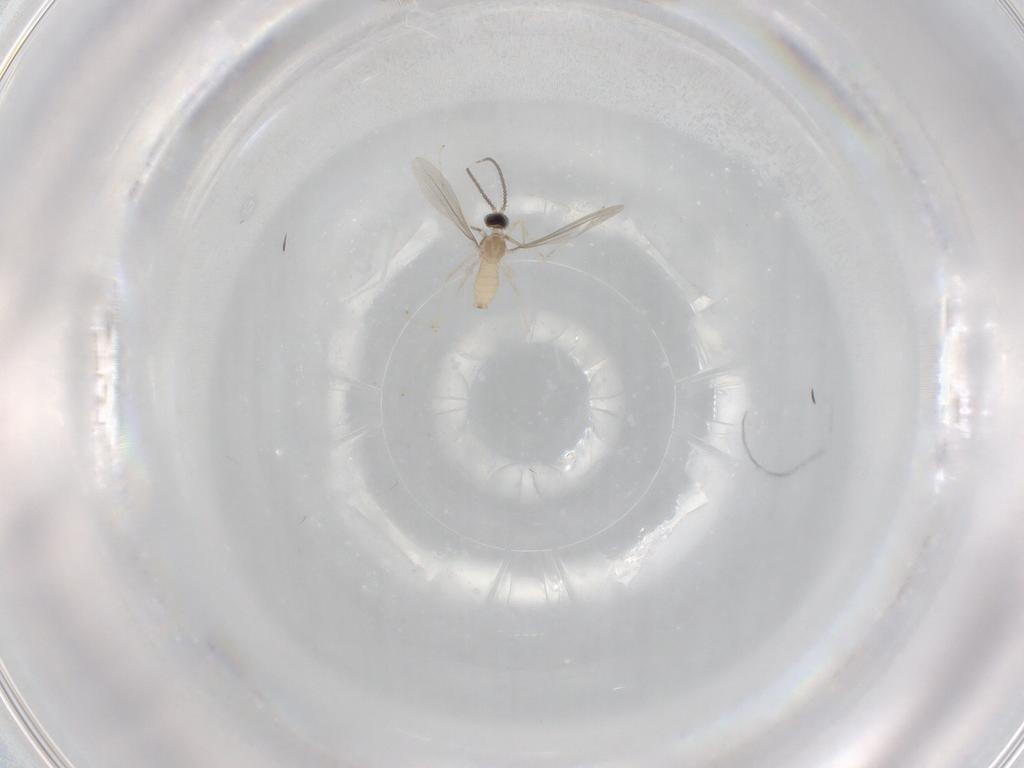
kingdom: Animalia
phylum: Arthropoda
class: Insecta
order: Diptera
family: Cecidomyiidae
